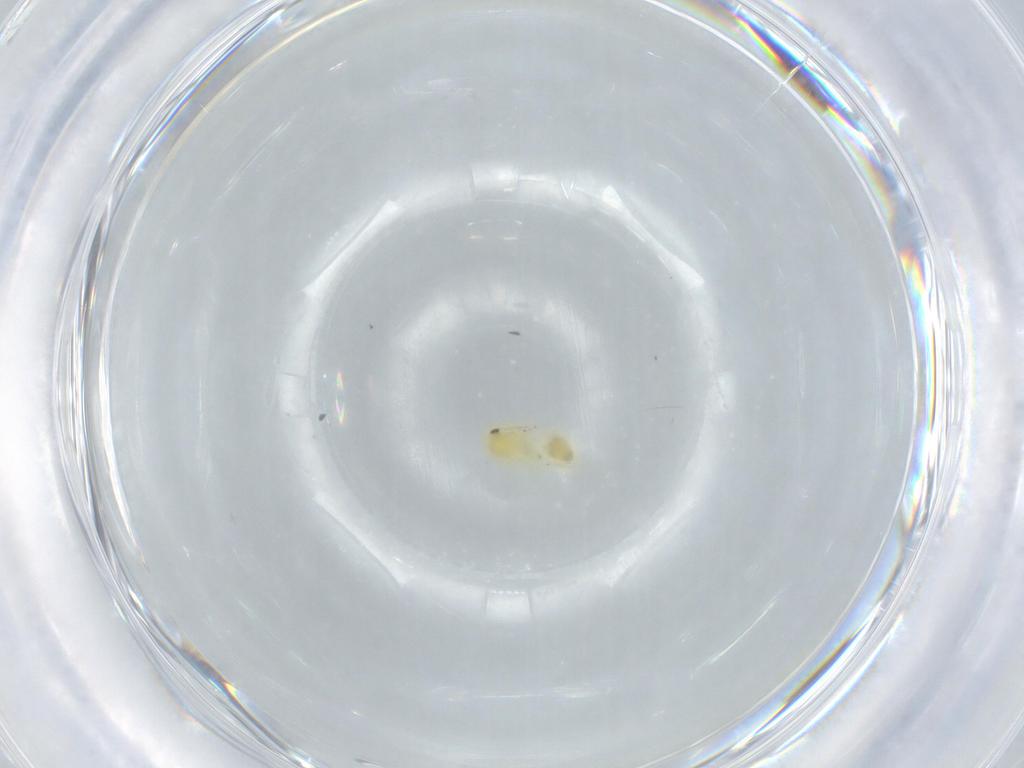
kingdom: Animalia
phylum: Arthropoda
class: Insecta
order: Hemiptera
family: Aleyrodidae
